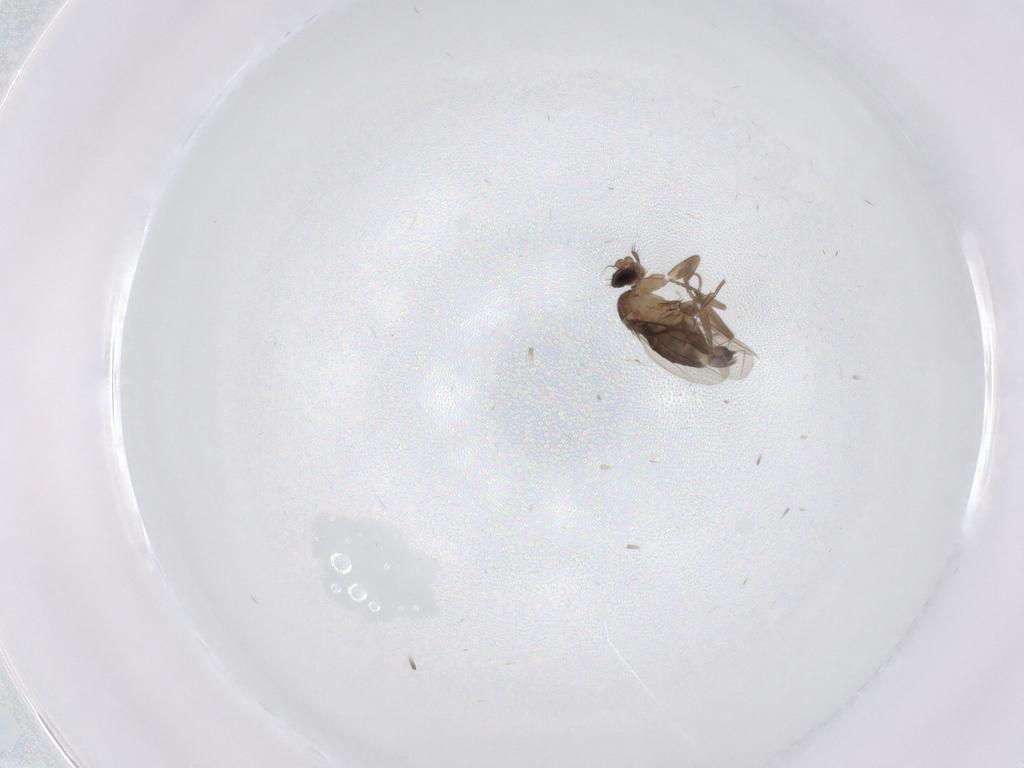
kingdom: Animalia
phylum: Arthropoda
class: Insecta
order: Diptera
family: Phoridae
